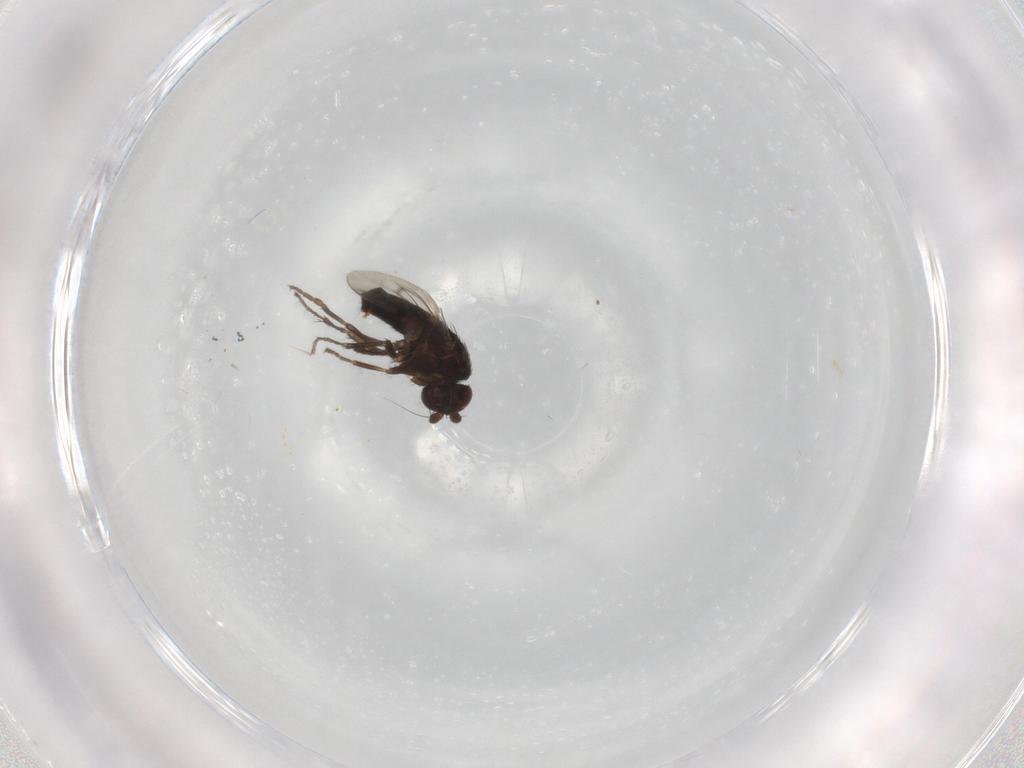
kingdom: Animalia
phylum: Arthropoda
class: Insecta
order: Diptera
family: Sphaeroceridae
